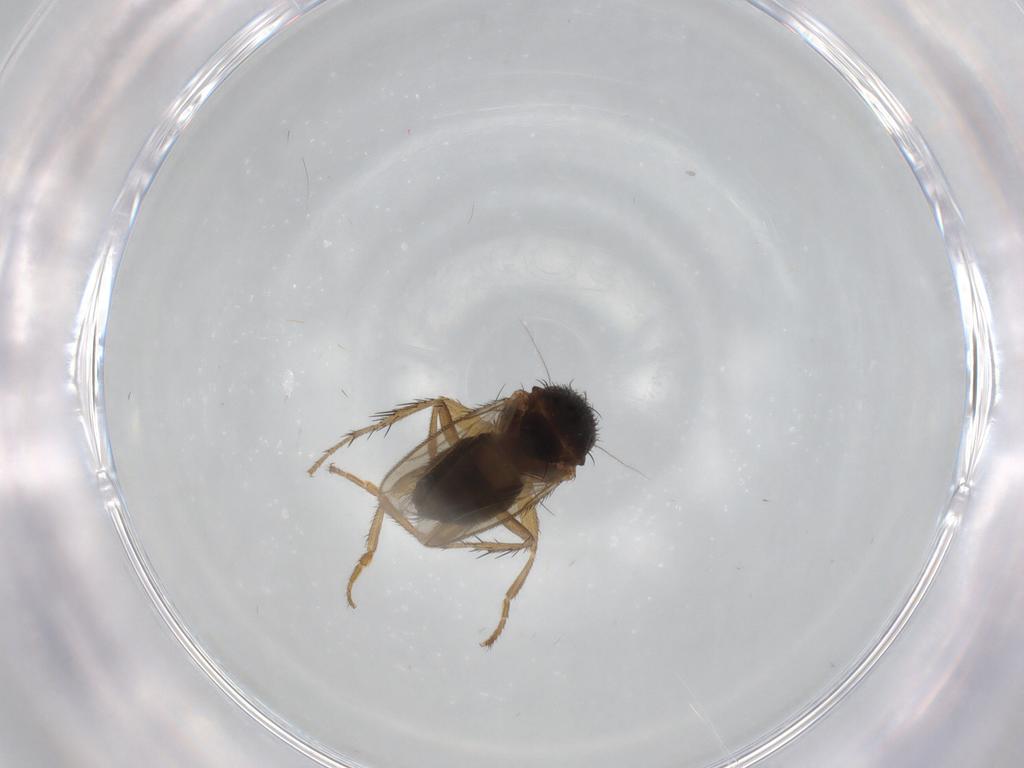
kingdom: Animalia
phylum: Arthropoda
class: Insecta
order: Diptera
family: Sphaeroceridae
